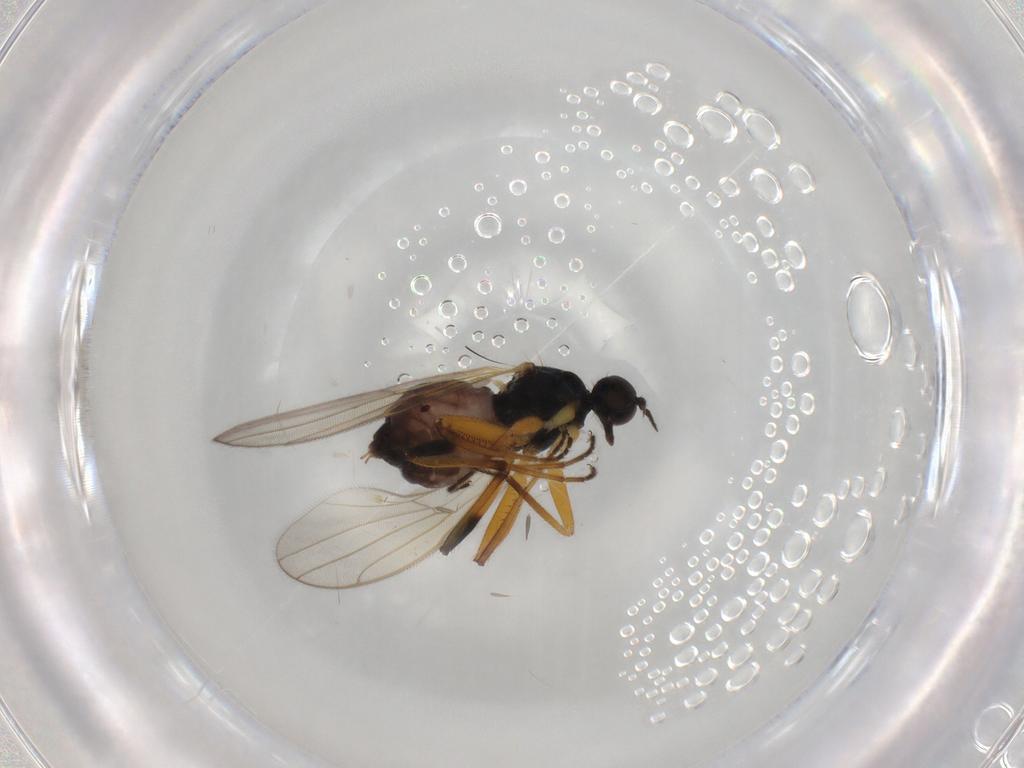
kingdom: Animalia
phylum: Arthropoda
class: Insecta
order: Diptera
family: Hybotidae
